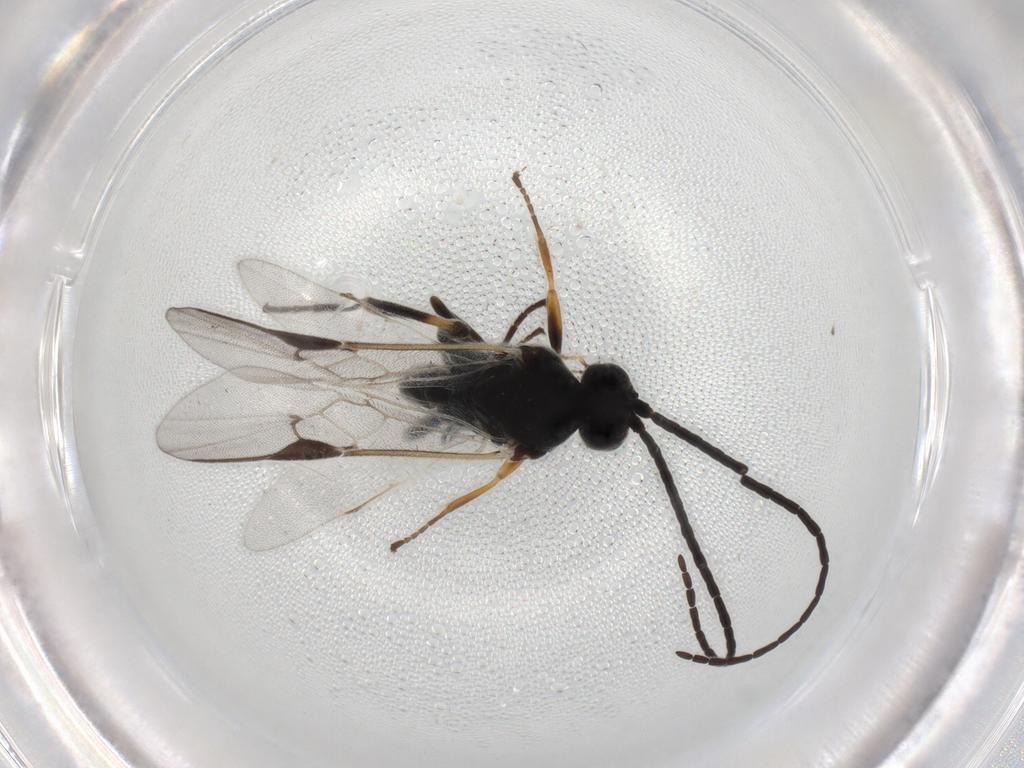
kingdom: Animalia
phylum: Arthropoda
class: Insecta
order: Hymenoptera
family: Braconidae
